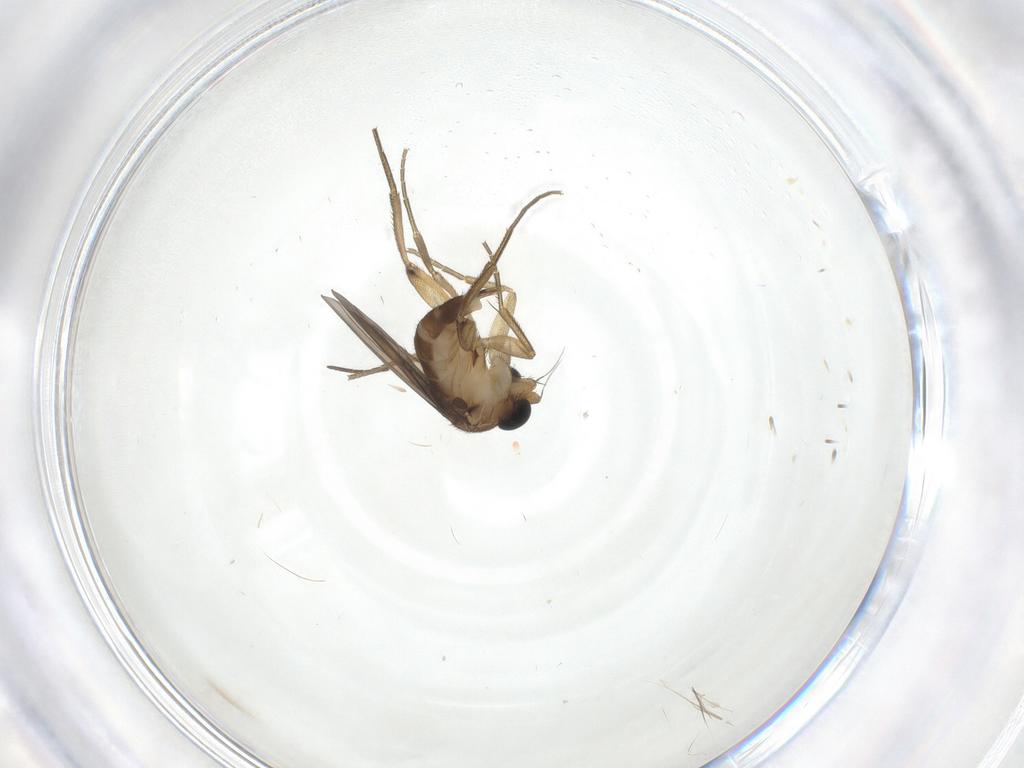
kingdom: Animalia
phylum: Arthropoda
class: Insecta
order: Diptera
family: Sciaridae
